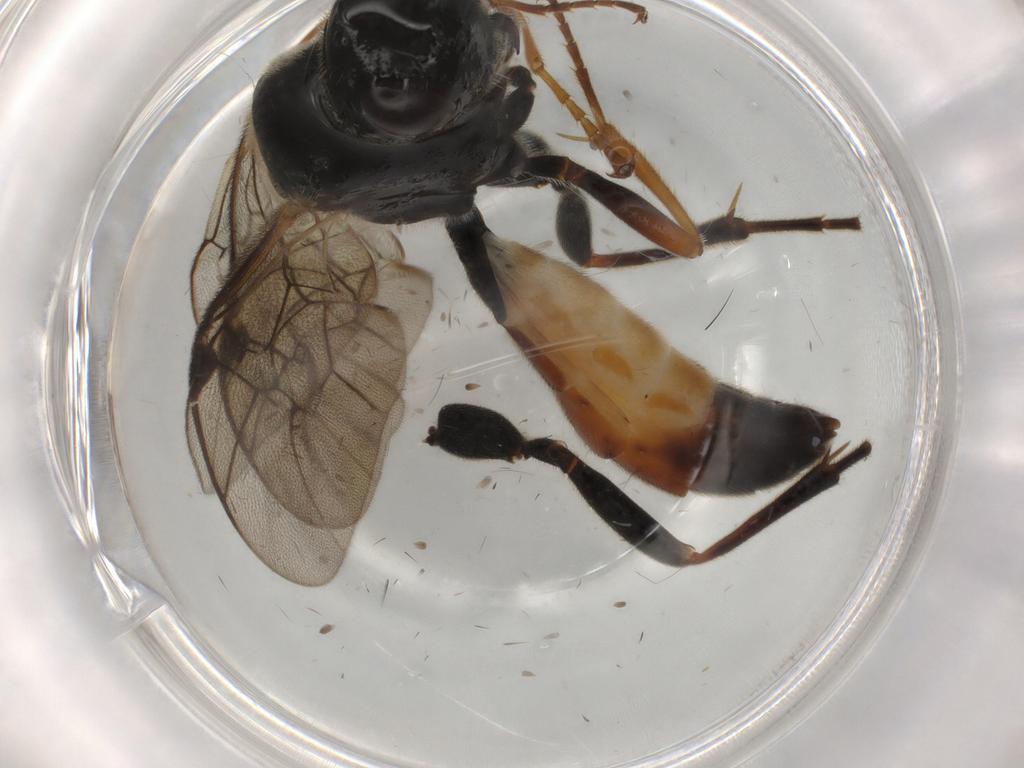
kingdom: Animalia
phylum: Arthropoda
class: Insecta
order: Hymenoptera
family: Ichneumonidae
